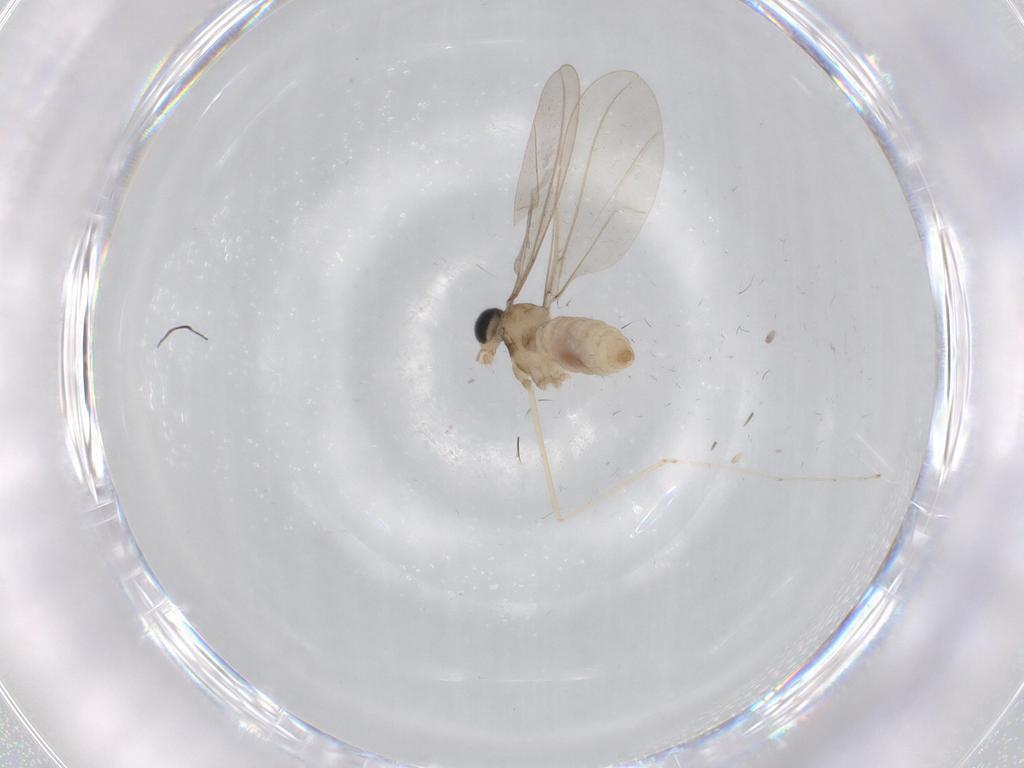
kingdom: Animalia
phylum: Arthropoda
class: Insecta
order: Diptera
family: Cecidomyiidae
